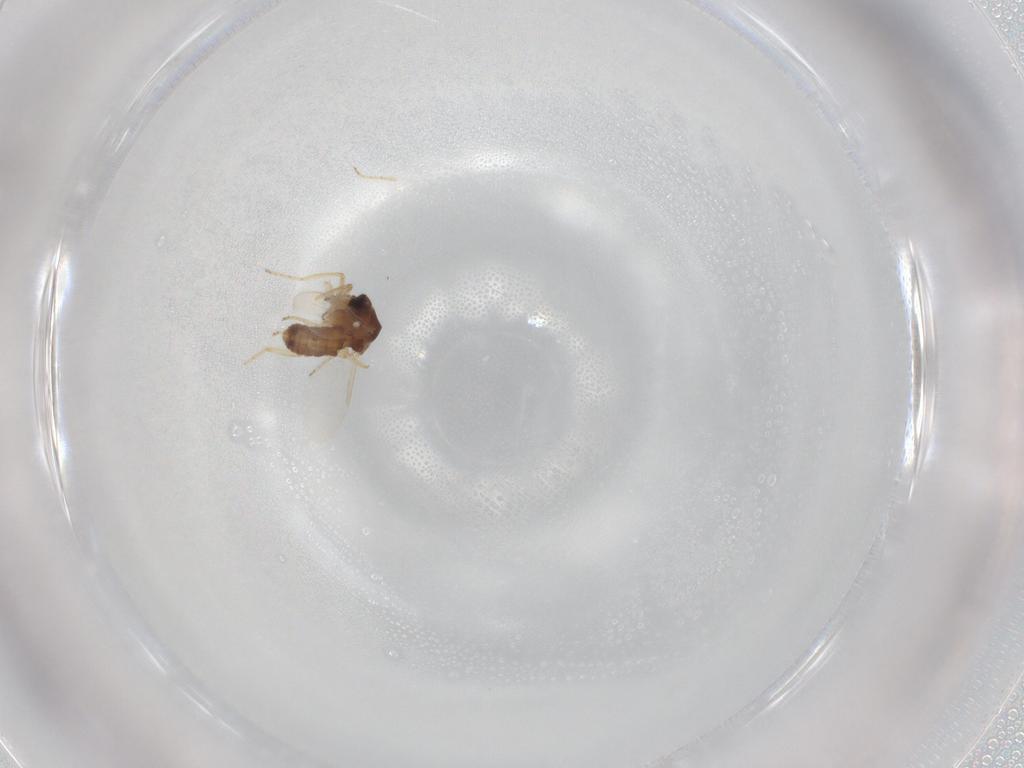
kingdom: Animalia
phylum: Arthropoda
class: Insecta
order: Diptera
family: Ceratopogonidae
